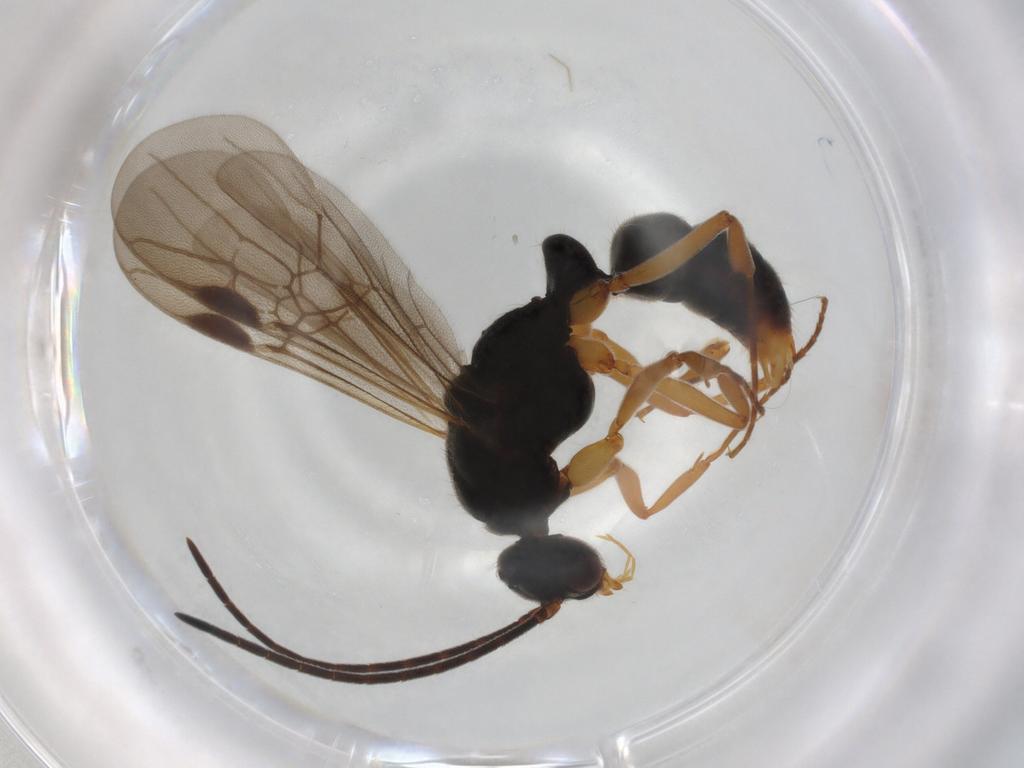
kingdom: Animalia
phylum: Arthropoda
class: Insecta
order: Hymenoptera
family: Formicidae
